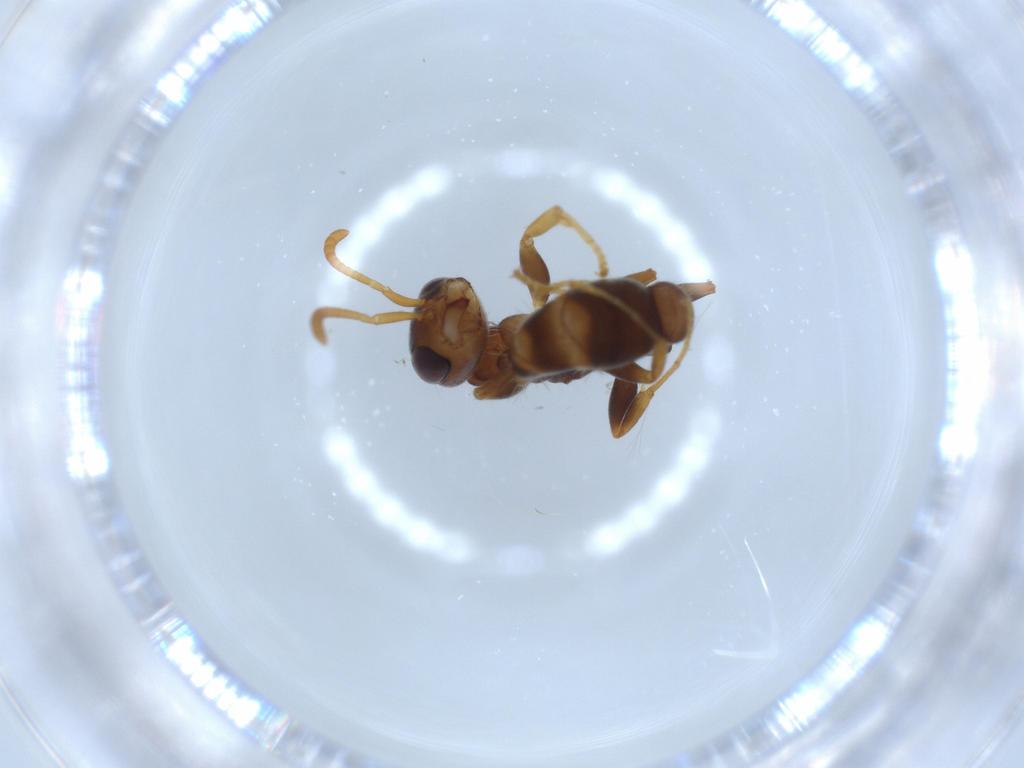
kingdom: Animalia
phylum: Arthropoda
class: Insecta
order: Hymenoptera
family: Formicidae
